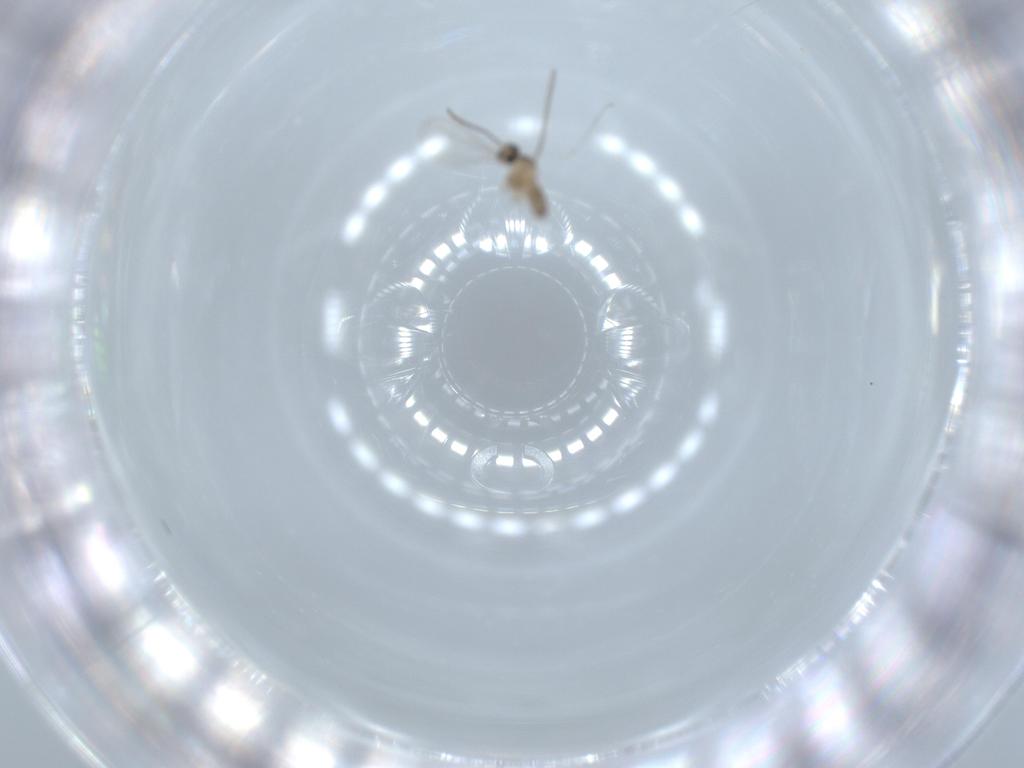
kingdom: Animalia
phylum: Arthropoda
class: Insecta
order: Diptera
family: Cecidomyiidae
